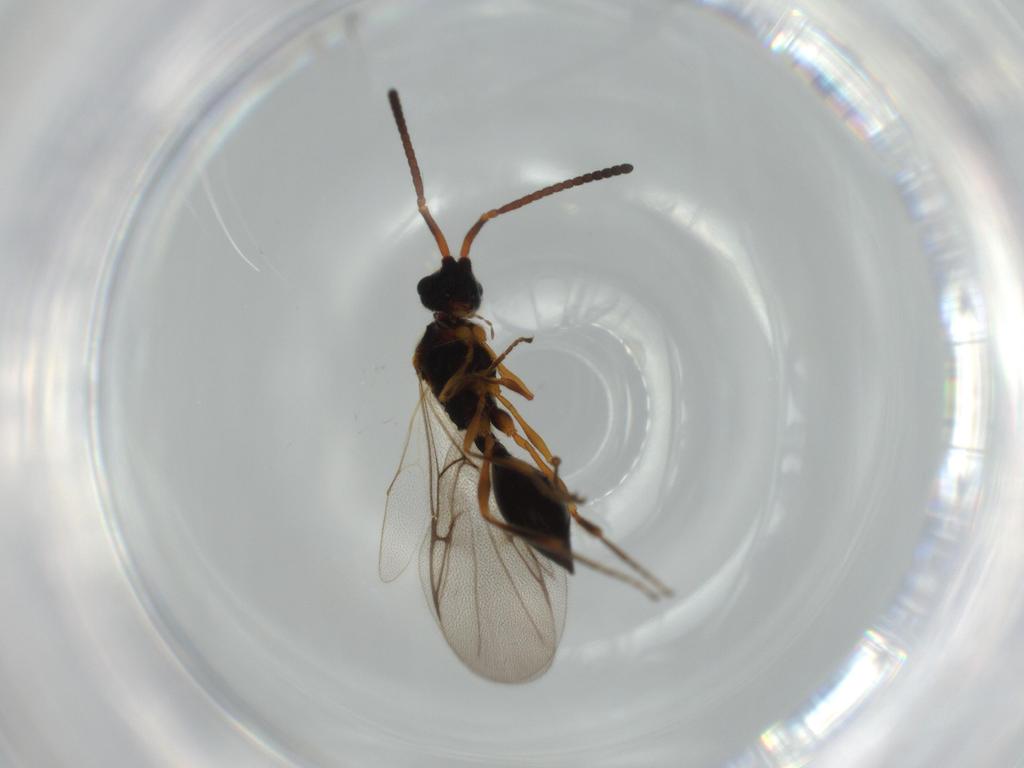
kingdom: Animalia
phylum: Arthropoda
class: Insecta
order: Hymenoptera
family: Diapriidae
